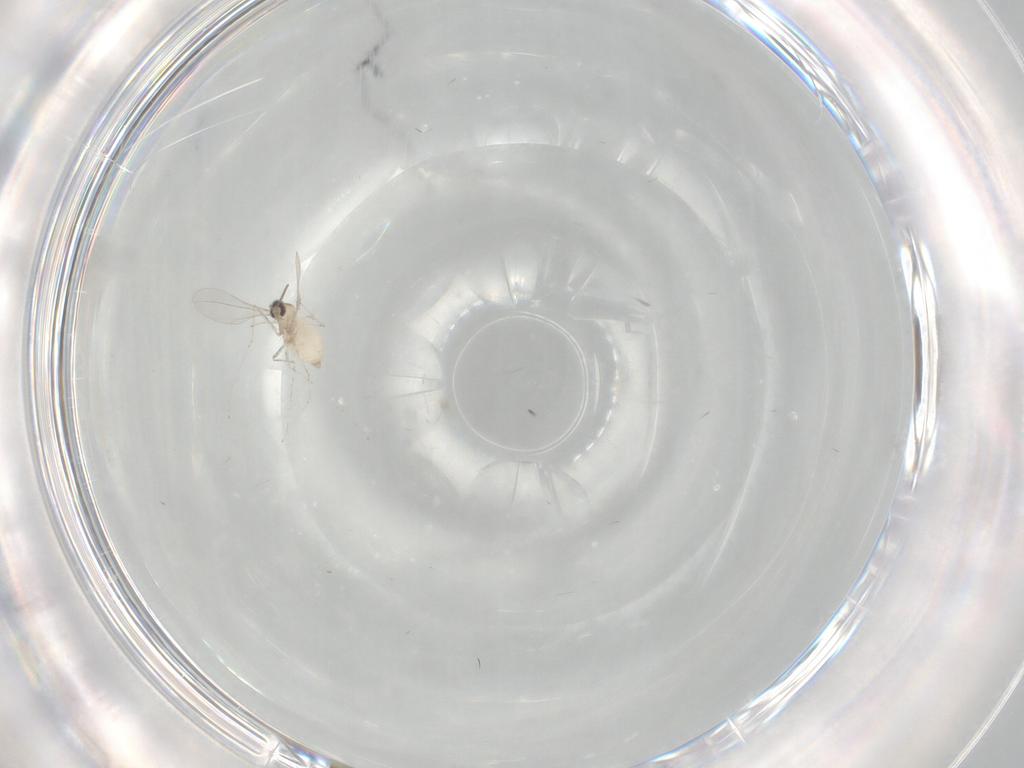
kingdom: Animalia
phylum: Arthropoda
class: Insecta
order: Diptera
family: Cecidomyiidae
